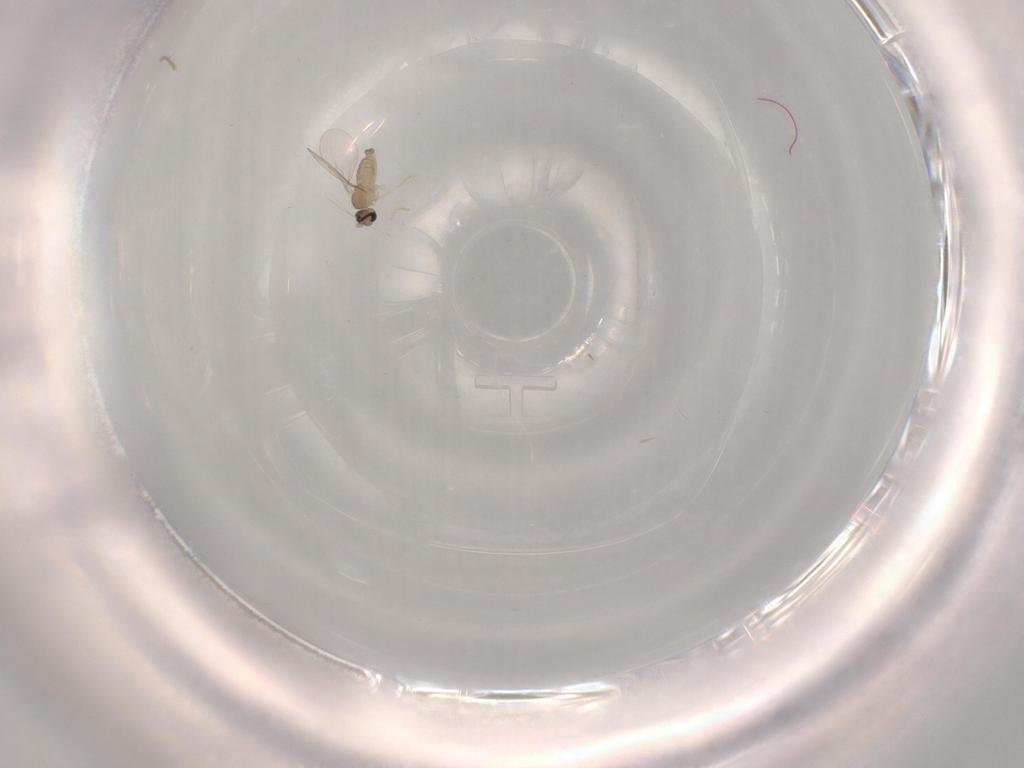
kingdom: Animalia
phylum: Arthropoda
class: Insecta
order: Diptera
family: Cecidomyiidae
